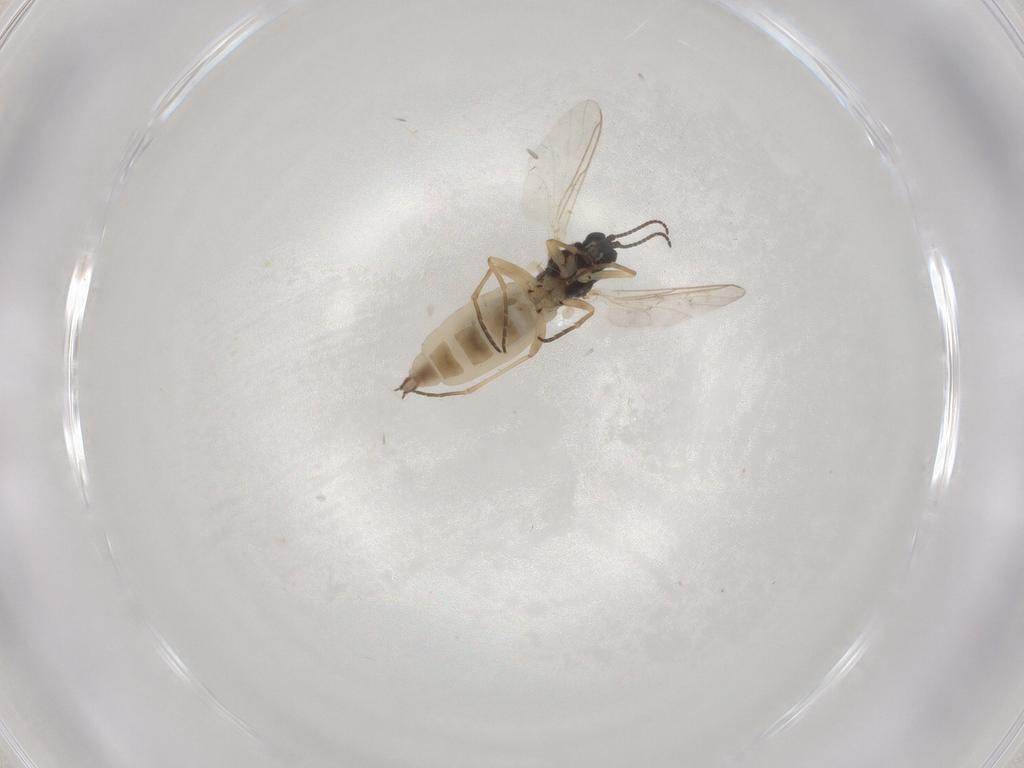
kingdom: Animalia
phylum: Arthropoda
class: Insecta
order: Diptera
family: Sciaridae
